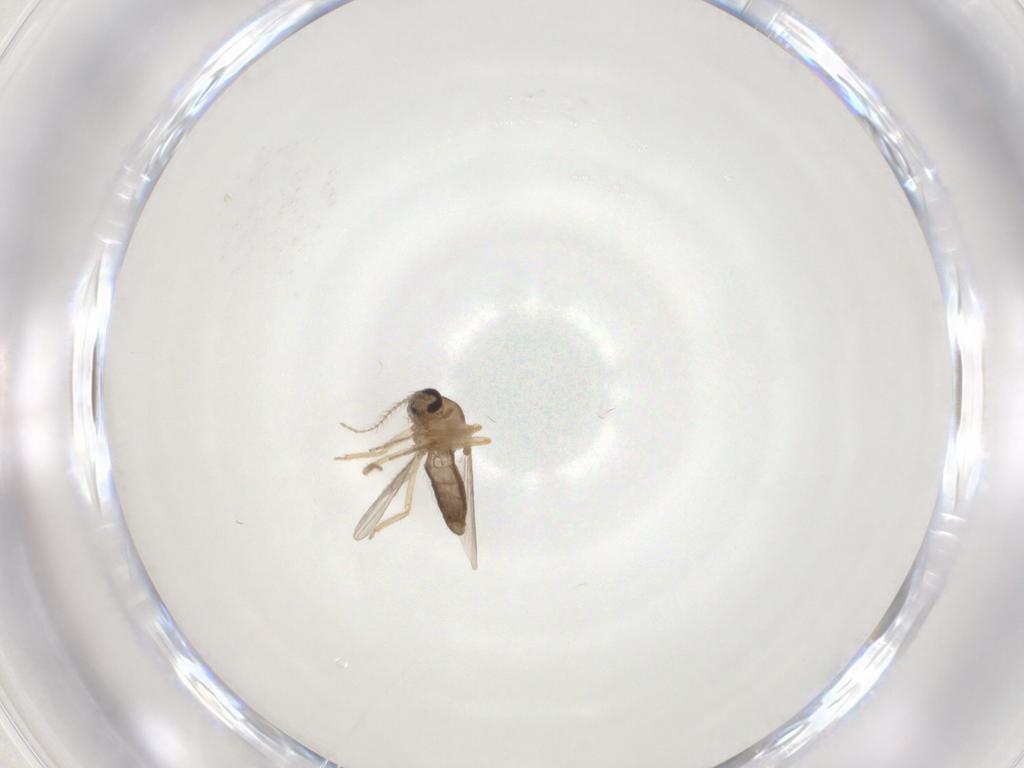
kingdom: Animalia
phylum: Arthropoda
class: Insecta
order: Diptera
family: Ceratopogonidae
